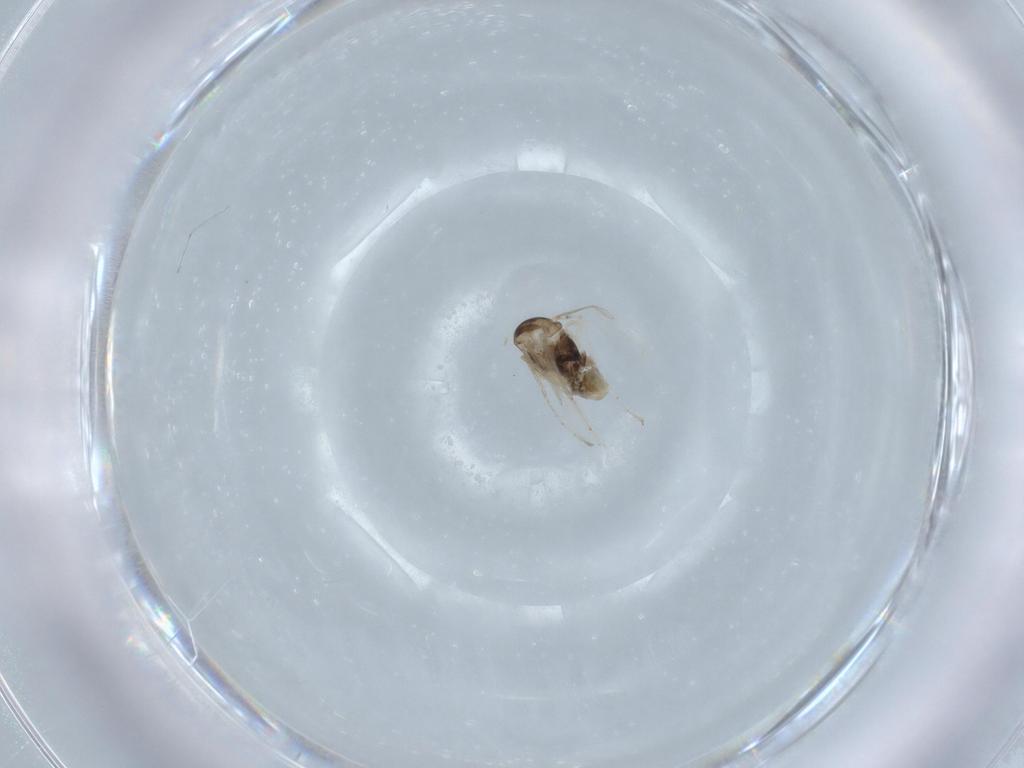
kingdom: Animalia
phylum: Arthropoda
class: Insecta
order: Diptera
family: Cecidomyiidae
